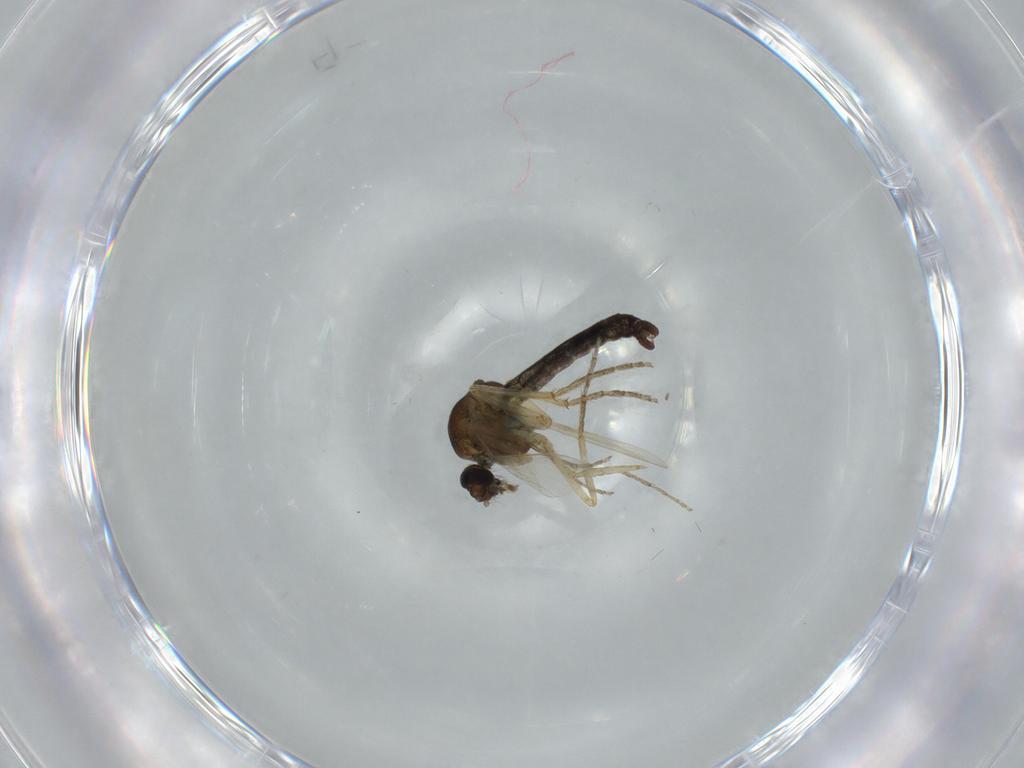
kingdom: Animalia
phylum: Arthropoda
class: Insecta
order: Diptera
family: Ceratopogonidae
